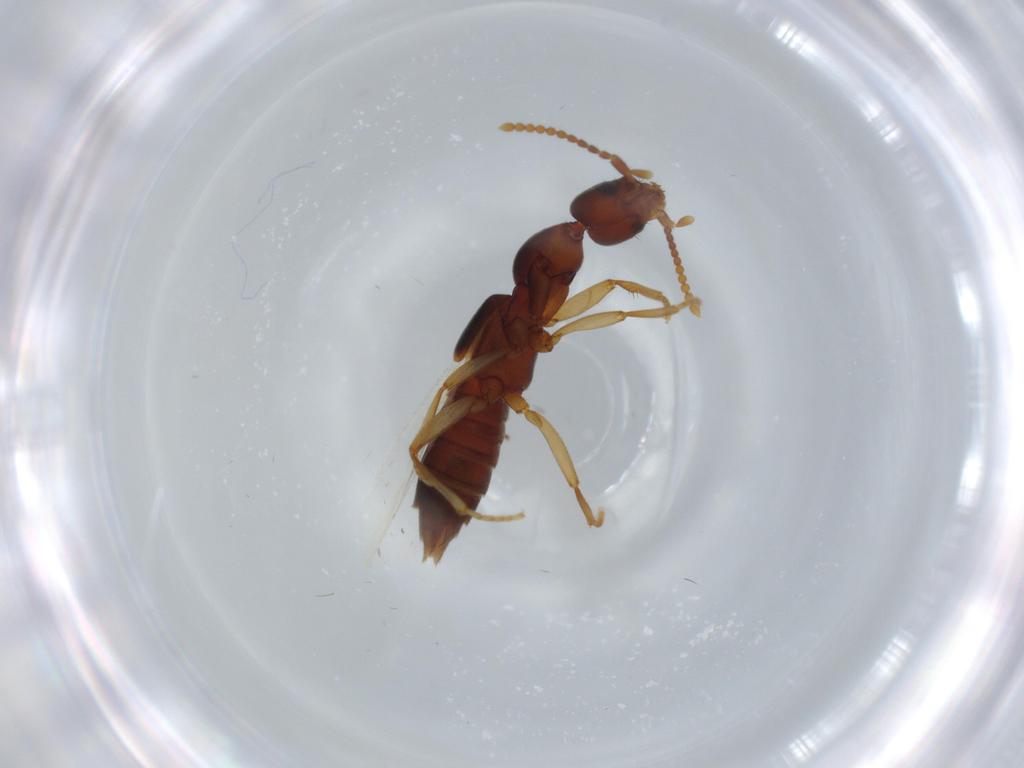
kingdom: Animalia
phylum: Arthropoda
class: Insecta
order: Coleoptera
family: Staphylinidae
